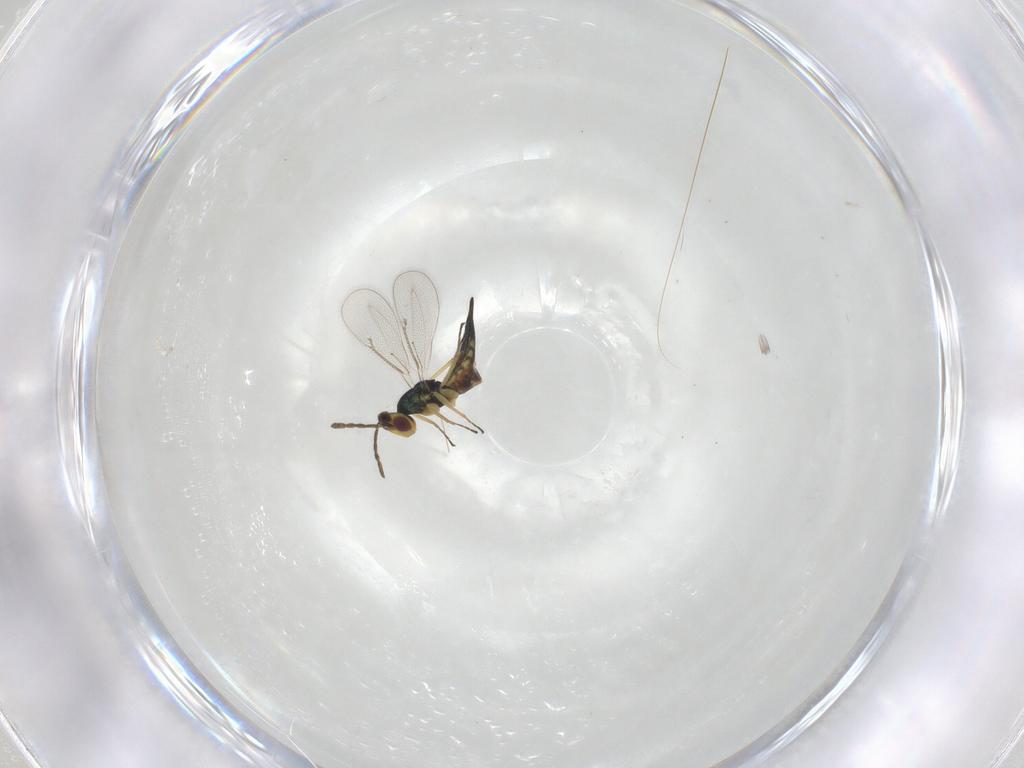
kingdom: Animalia
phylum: Arthropoda
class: Insecta
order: Hymenoptera
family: Eulophidae
